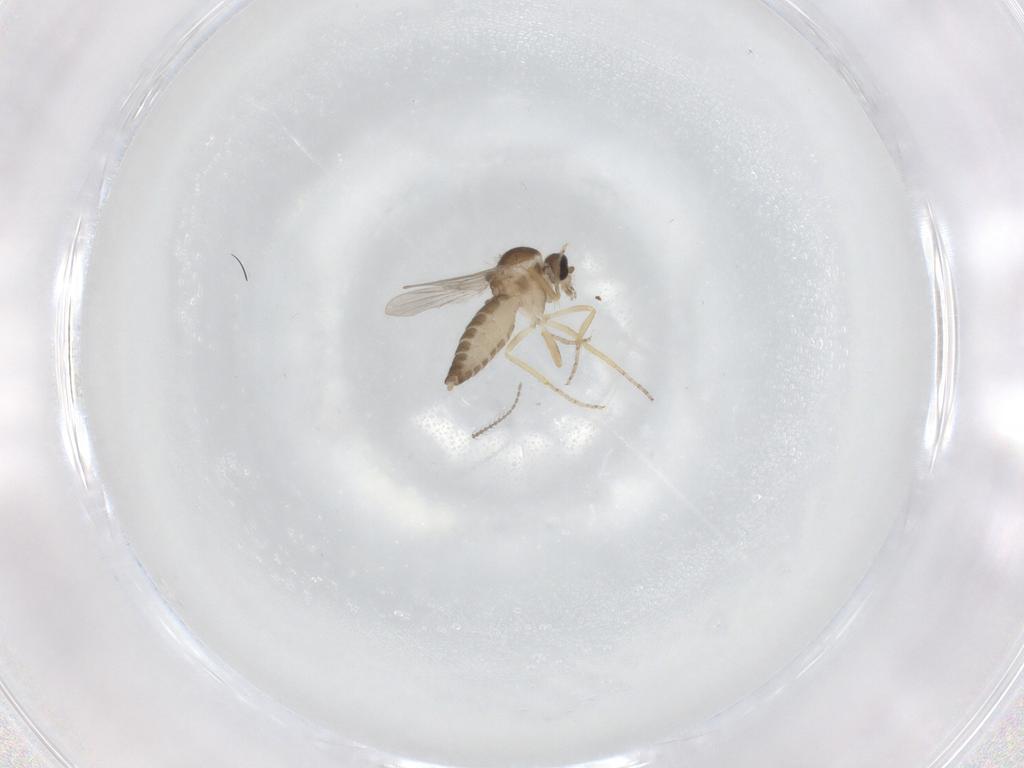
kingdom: Animalia
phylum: Arthropoda
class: Insecta
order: Diptera
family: Ceratopogonidae
